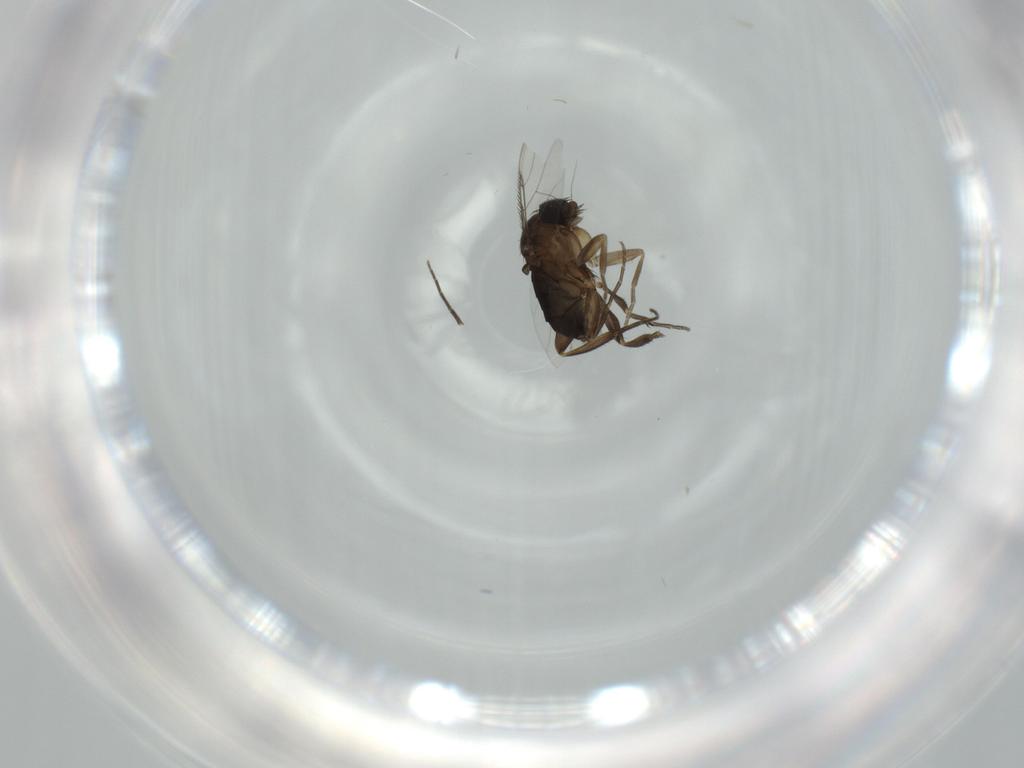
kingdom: Animalia
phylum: Arthropoda
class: Insecta
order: Diptera
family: Phoridae
